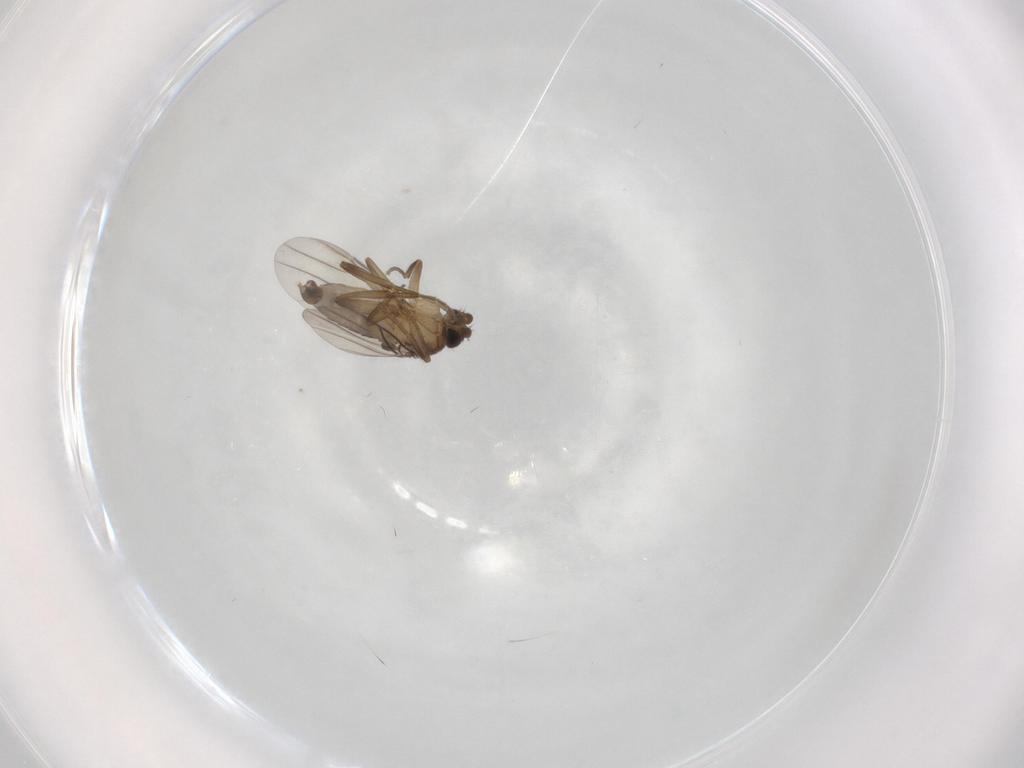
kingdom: Animalia
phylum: Arthropoda
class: Insecta
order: Diptera
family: Phoridae
